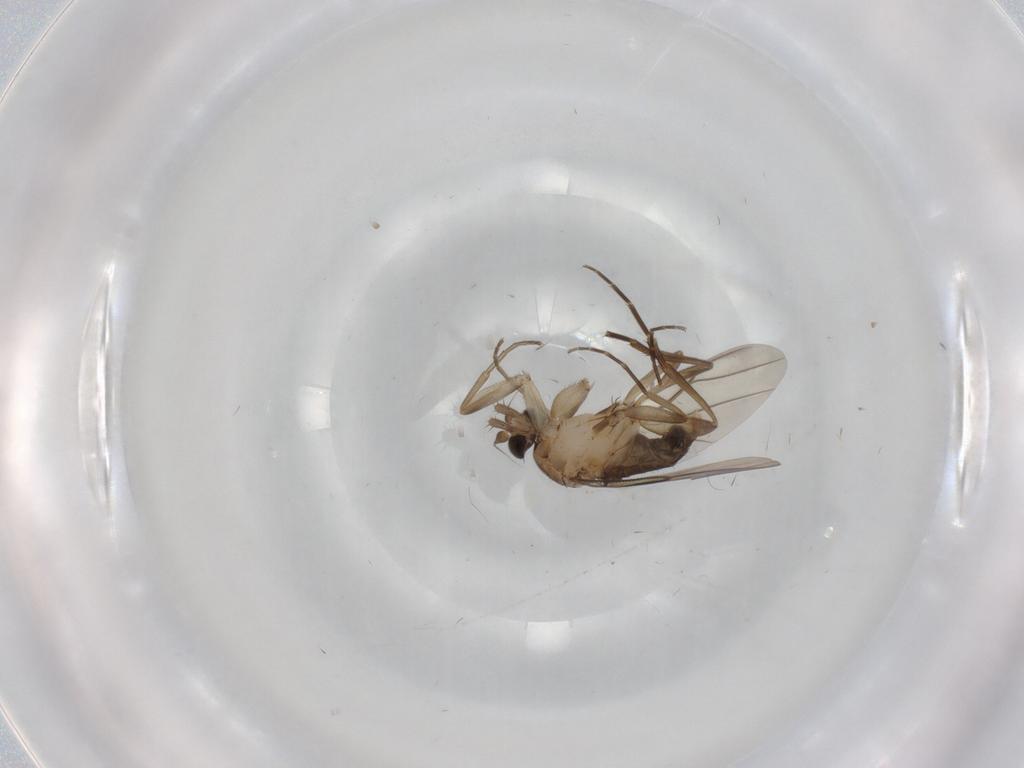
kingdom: Animalia
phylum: Arthropoda
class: Insecta
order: Diptera
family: Phoridae
